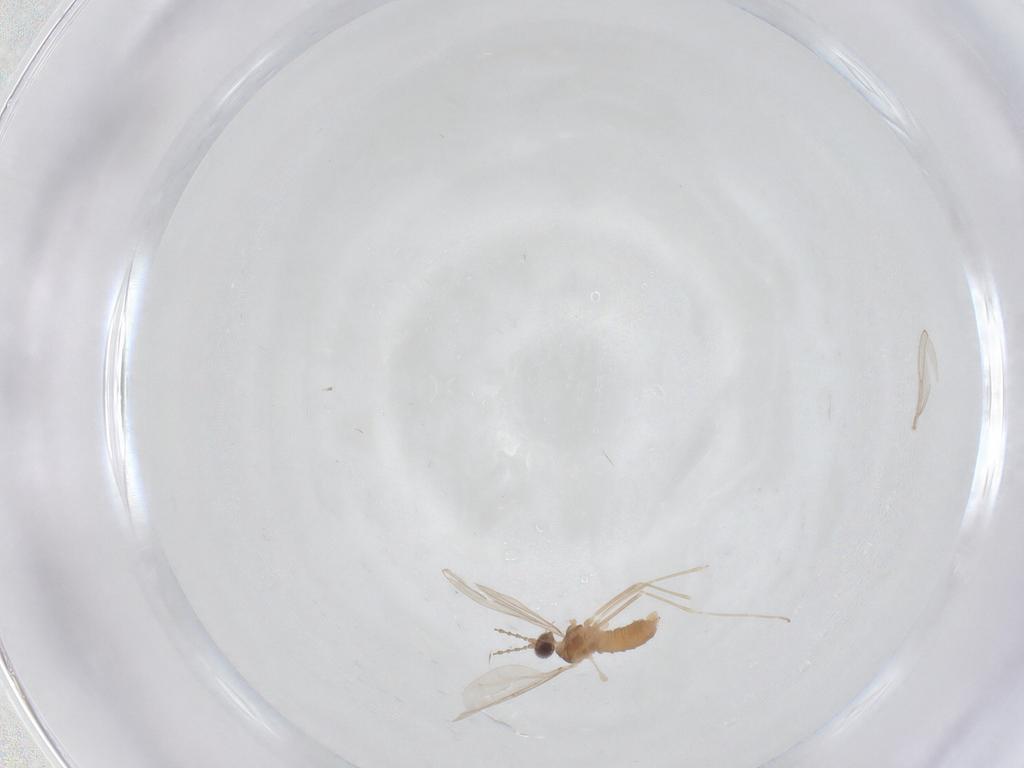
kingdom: Animalia
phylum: Arthropoda
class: Insecta
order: Diptera
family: Cecidomyiidae
